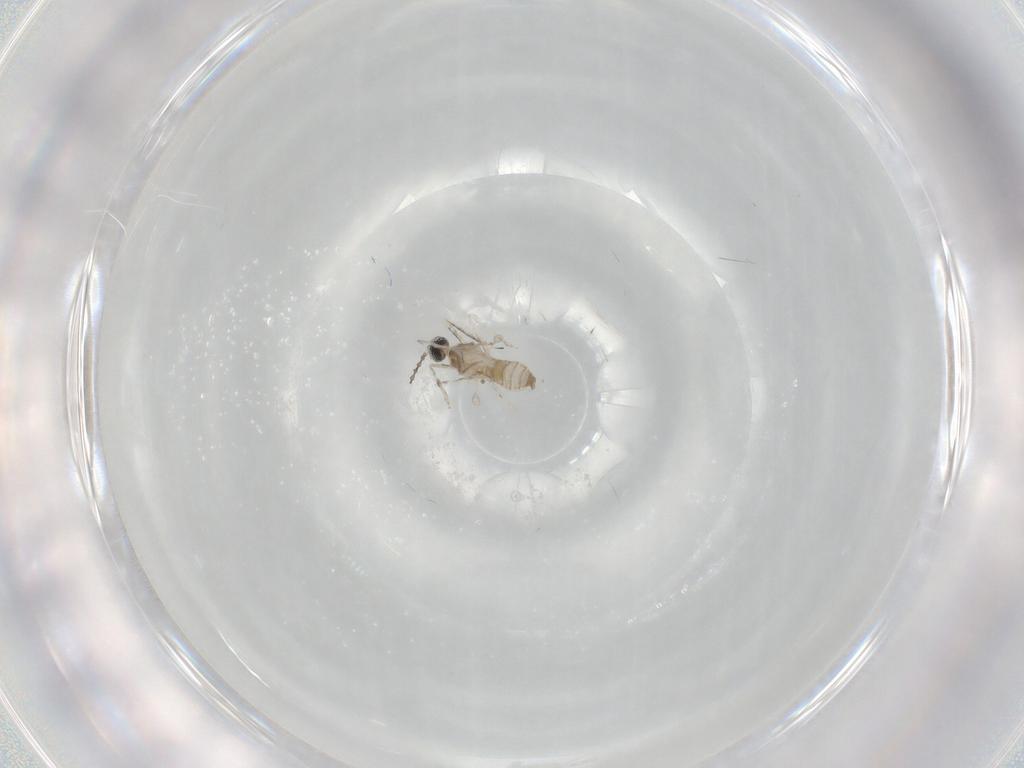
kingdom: Animalia
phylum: Arthropoda
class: Insecta
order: Diptera
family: Cecidomyiidae
